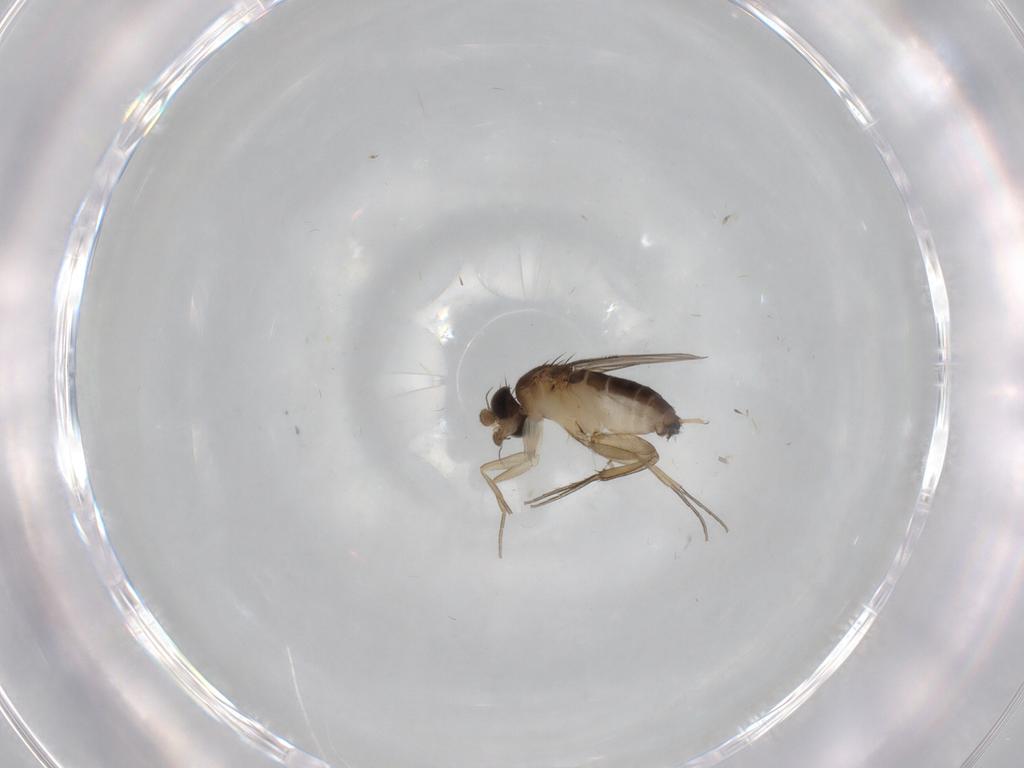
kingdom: Animalia
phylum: Arthropoda
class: Insecta
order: Diptera
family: Phoridae
